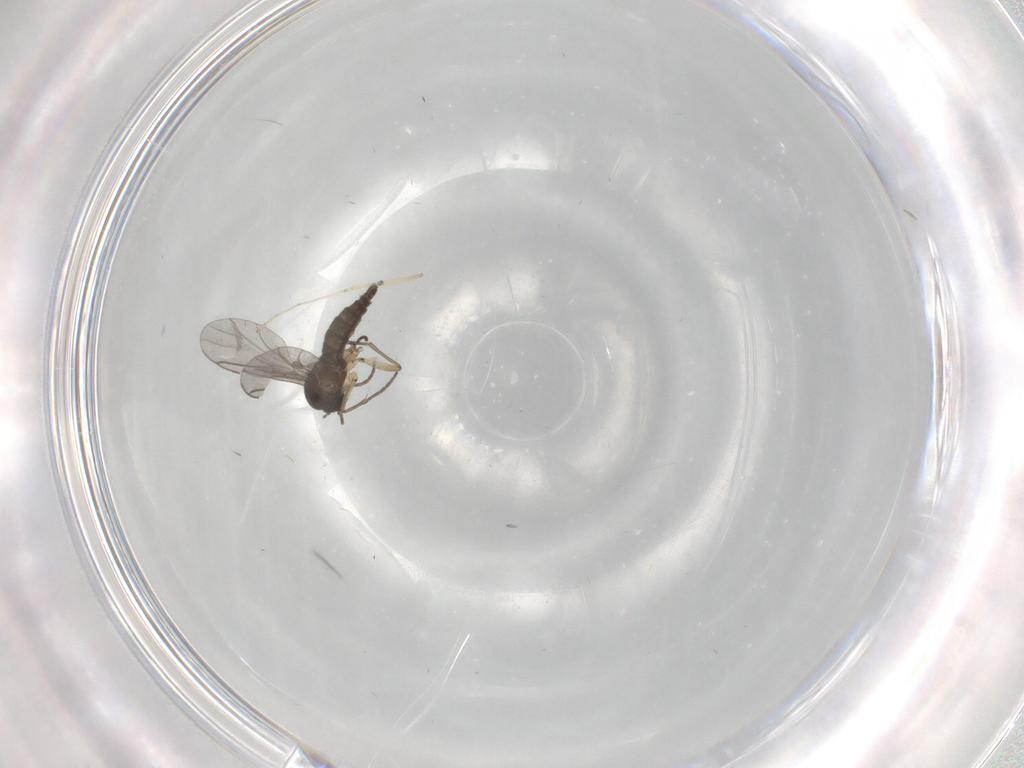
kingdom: Animalia
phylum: Arthropoda
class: Insecta
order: Diptera
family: Sciaridae
